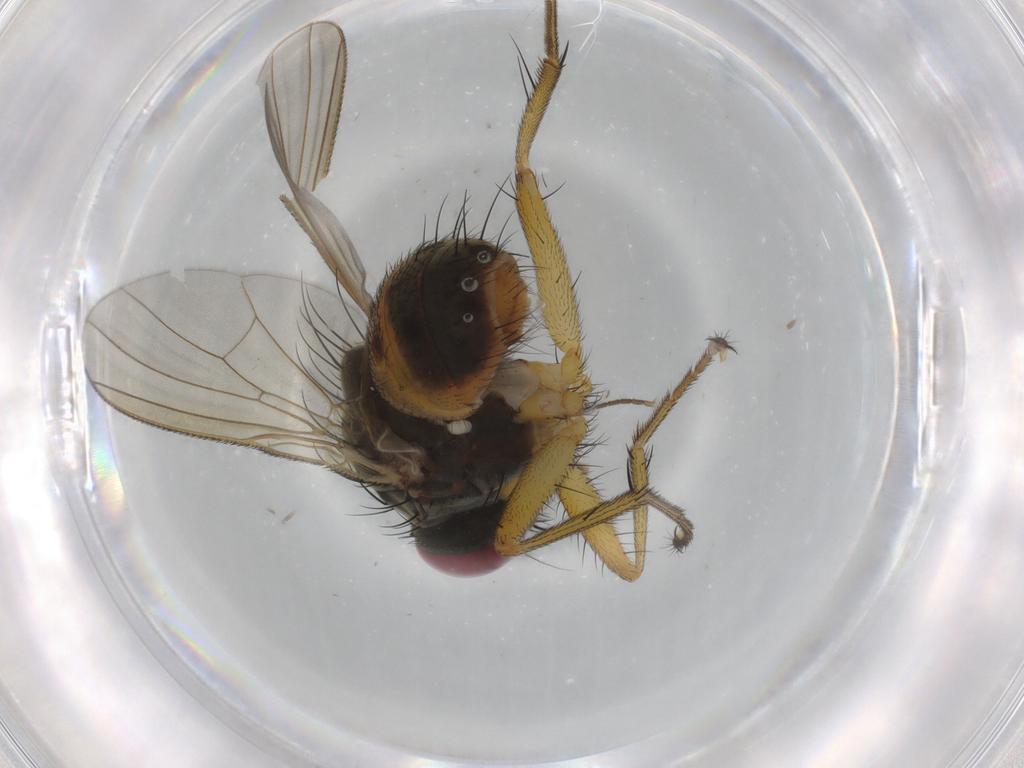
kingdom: Animalia
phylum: Arthropoda
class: Insecta
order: Diptera
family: Muscidae
